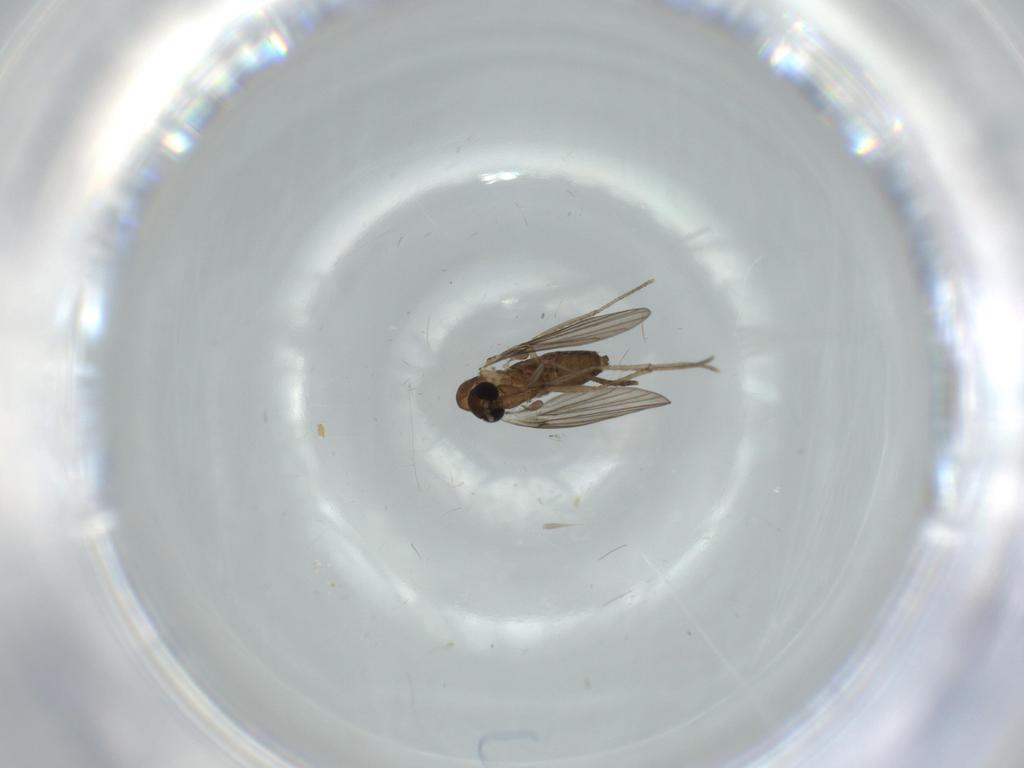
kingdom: Animalia
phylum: Arthropoda
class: Insecta
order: Diptera
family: Psychodidae
